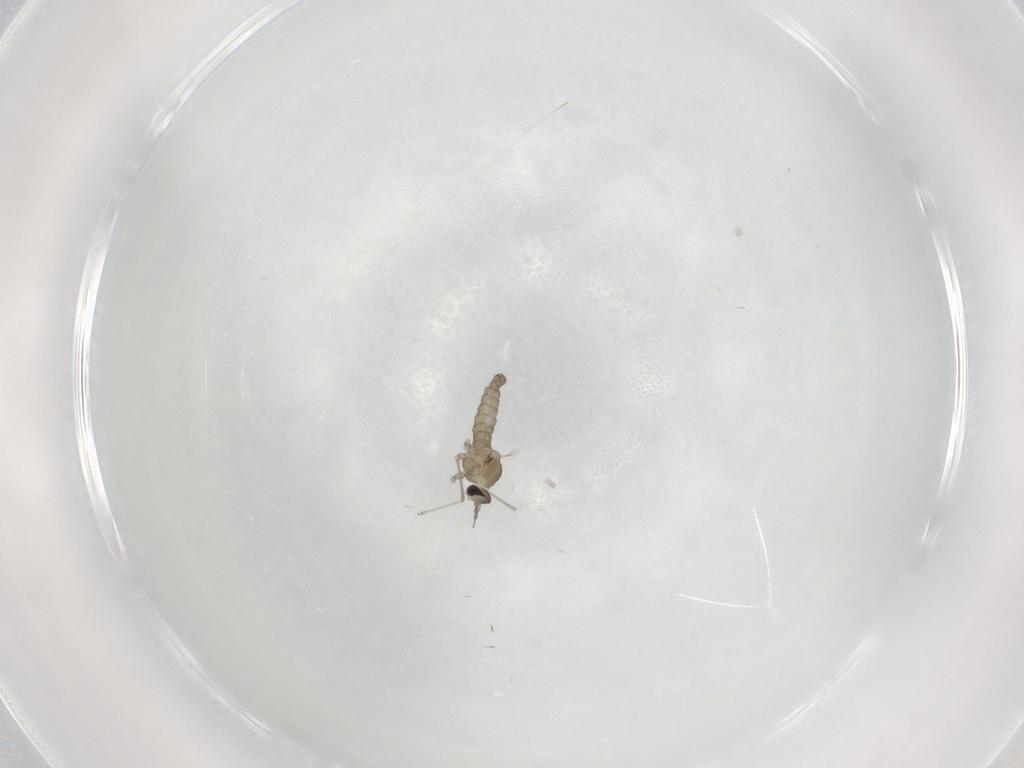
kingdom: Animalia
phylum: Arthropoda
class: Insecta
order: Diptera
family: Cecidomyiidae
